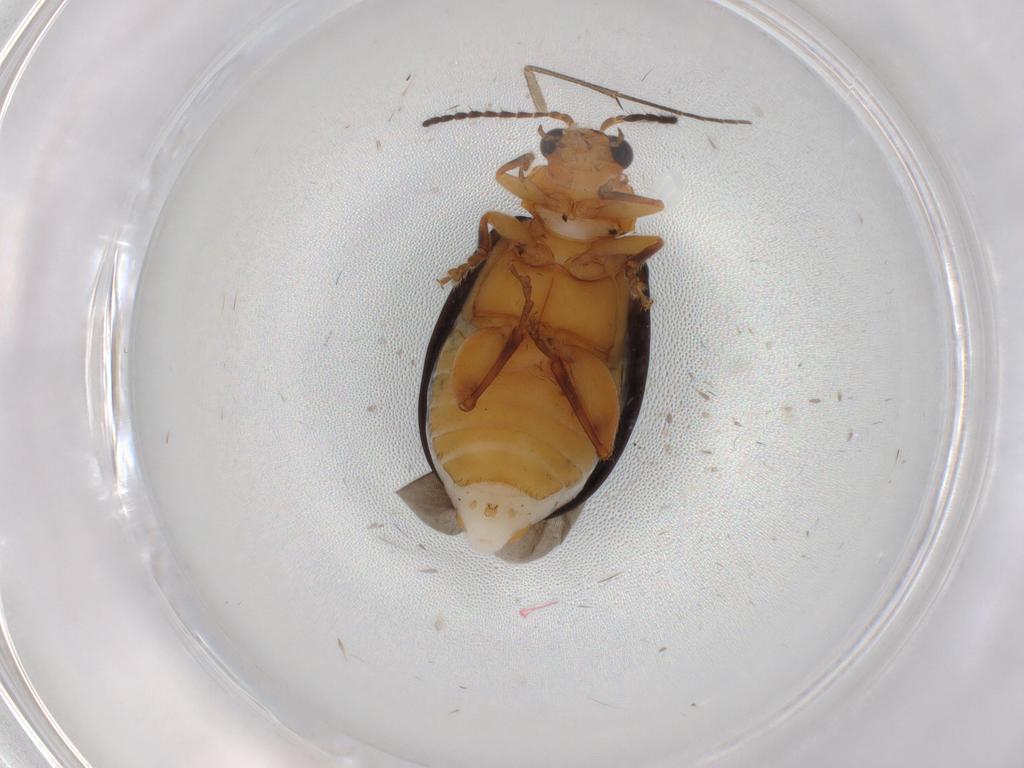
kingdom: Animalia
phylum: Arthropoda
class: Insecta
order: Coleoptera
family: Chrysomelidae
